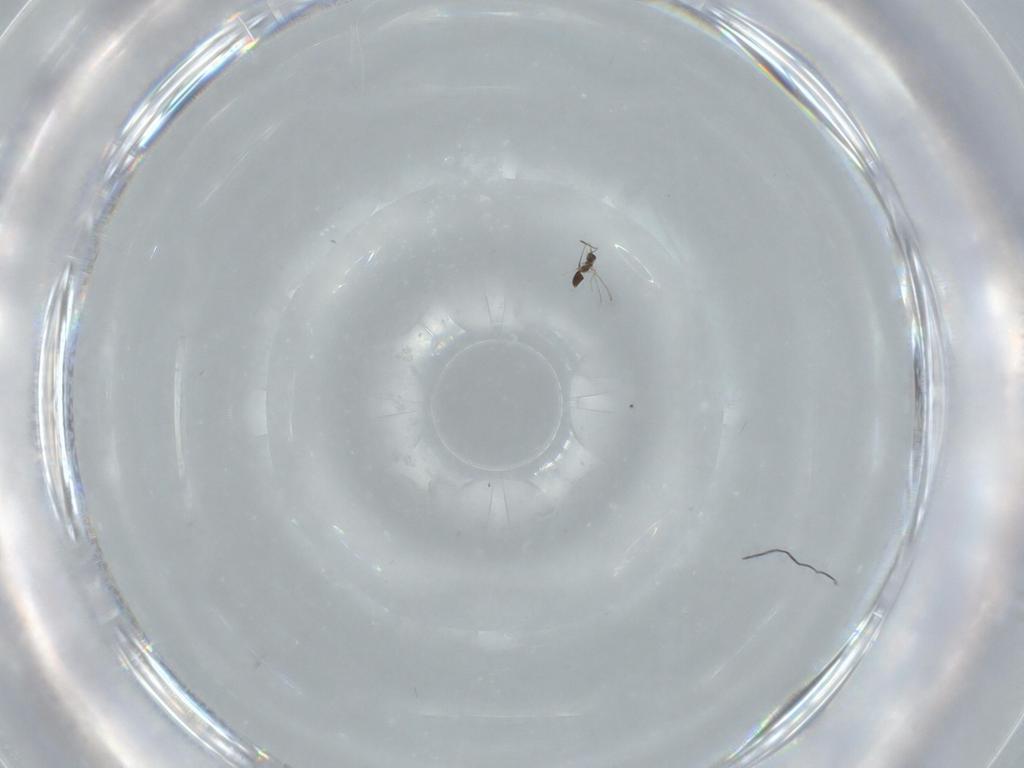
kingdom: Animalia
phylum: Arthropoda
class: Insecta
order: Hymenoptera
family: Mymaridae
